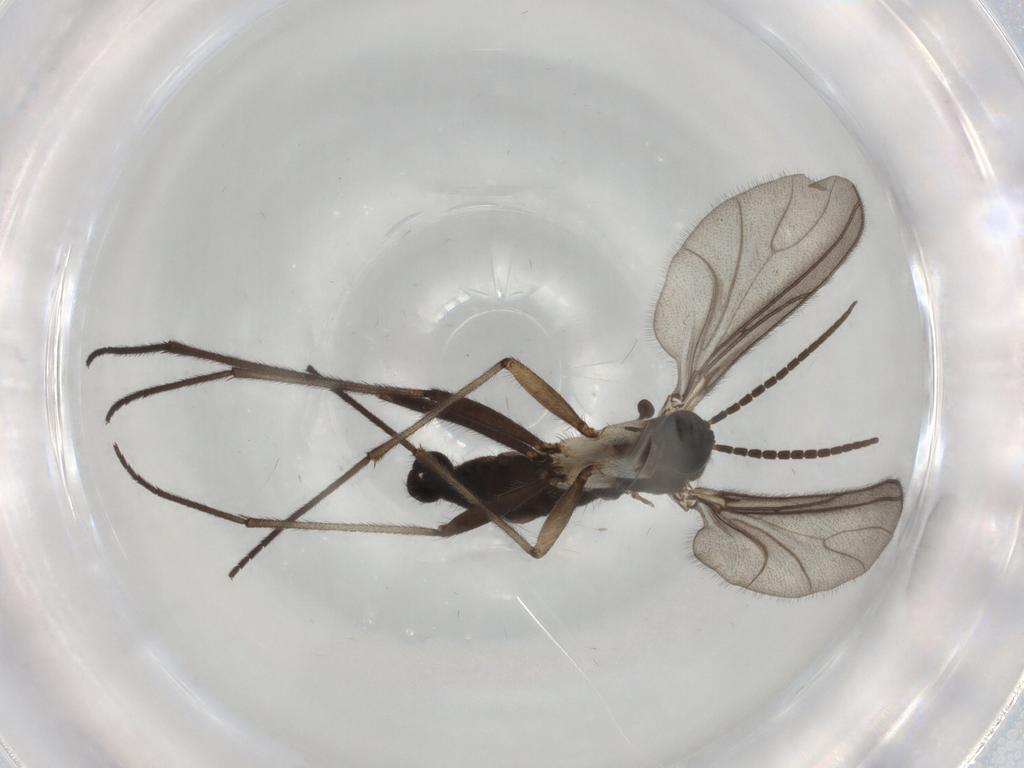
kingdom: Animalia
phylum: Arthropoda
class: Insecta
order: Diptera
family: Sciaridae
